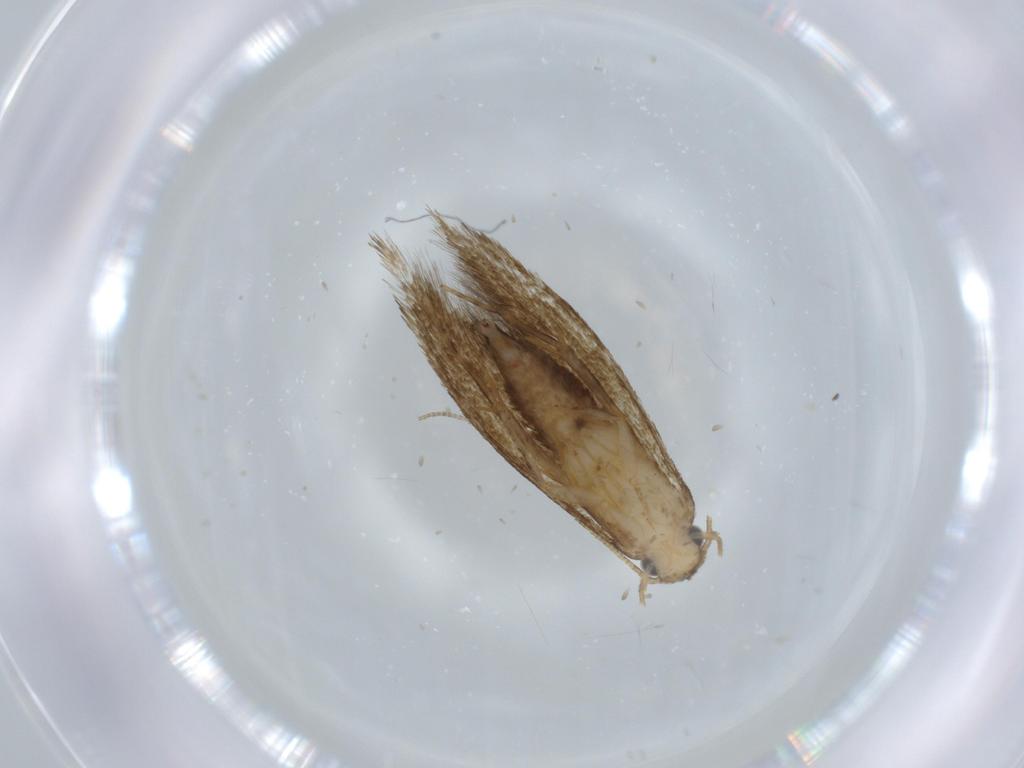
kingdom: Animalia
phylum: Arthropoda
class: Insecta
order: Lepidoptera
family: Tineidae
